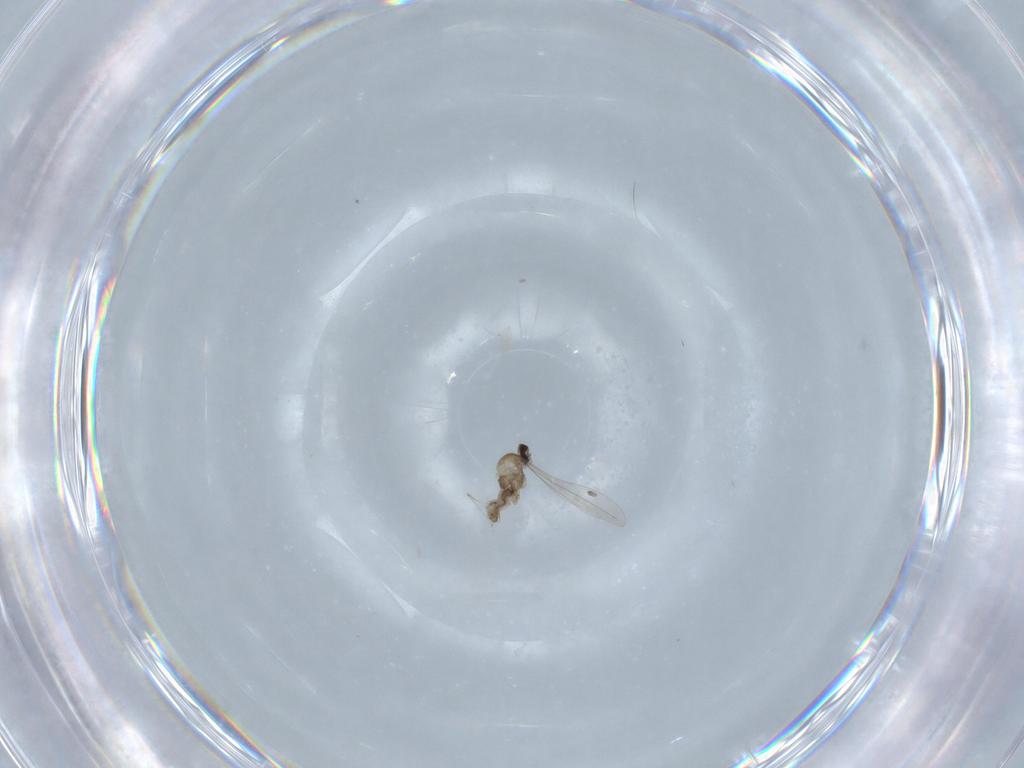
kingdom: Animalia
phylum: Arthropoda
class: Insecta
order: Diptera
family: Cecidomyiidae
